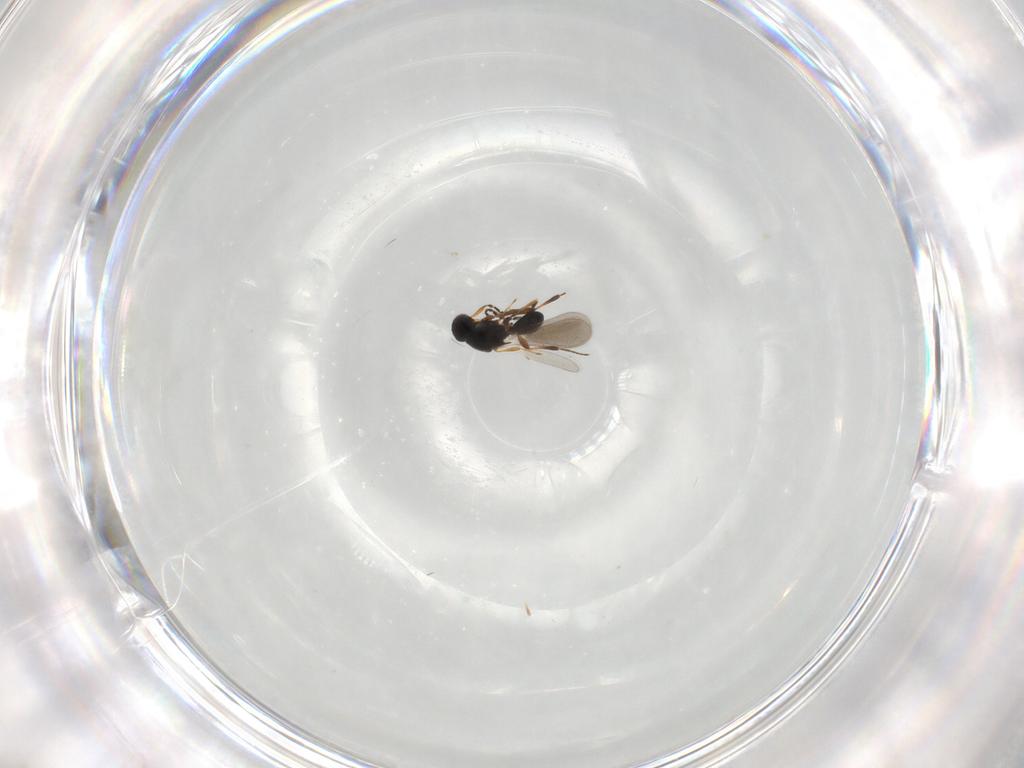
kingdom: Animalia
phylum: Arthropoda
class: Insecta
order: Hymenoptera
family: Platygastridae
